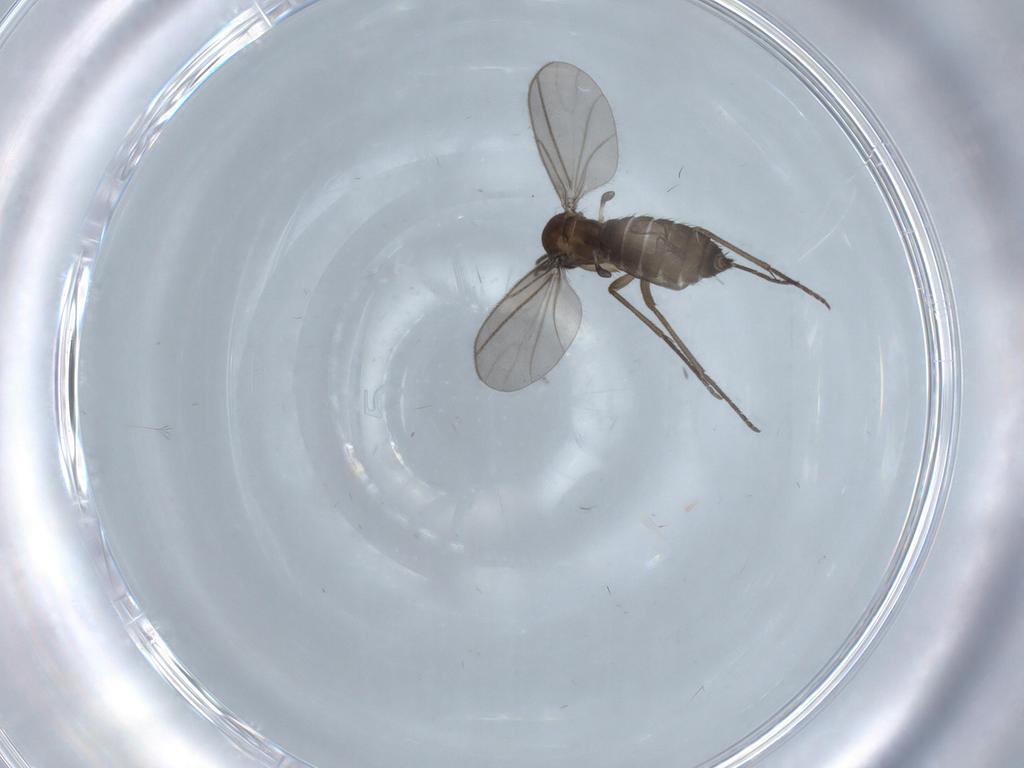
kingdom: Animalia
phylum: Arthropoda
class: Insecta
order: Diptera
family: Sciaridae
